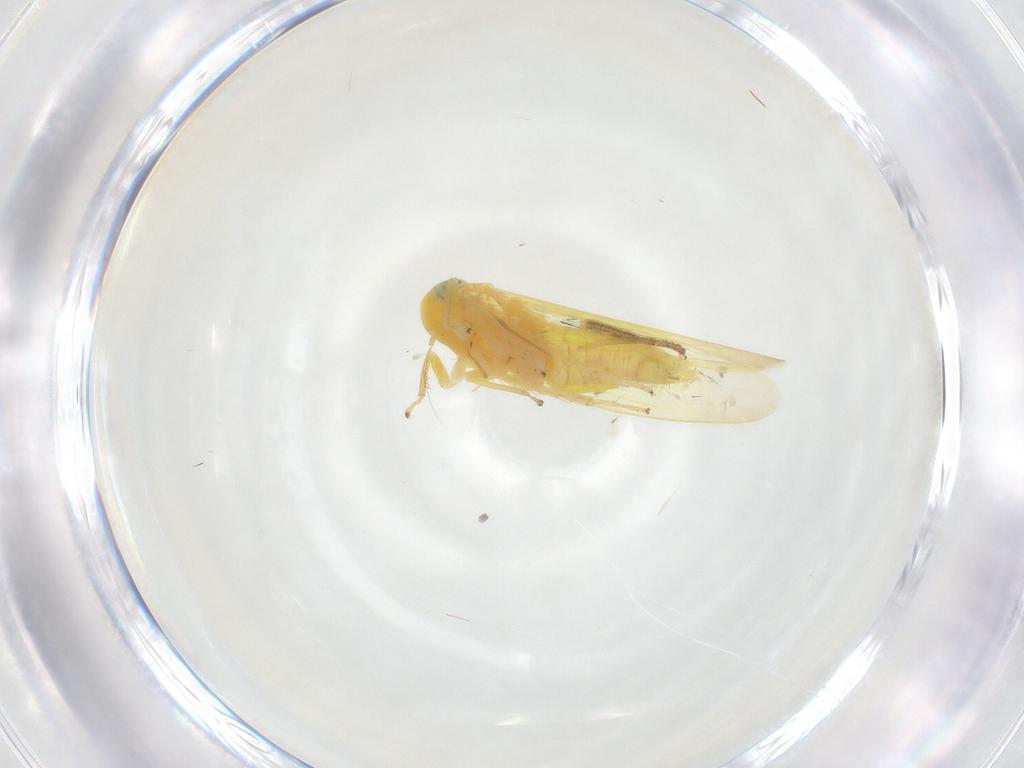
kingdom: Animalia
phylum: Arthropoda
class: Insecta
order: Hemiptera
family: Cicadellidae
